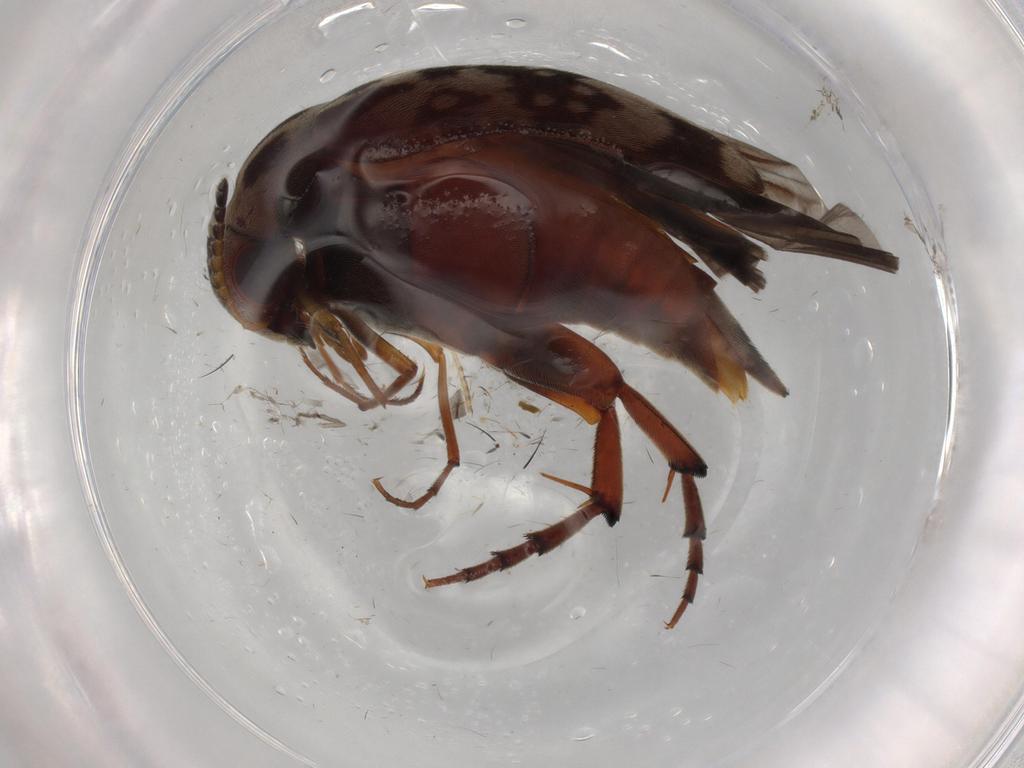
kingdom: Animalia
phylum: Arthropoda
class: Insecta
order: Coleoptera
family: Mordellidae
